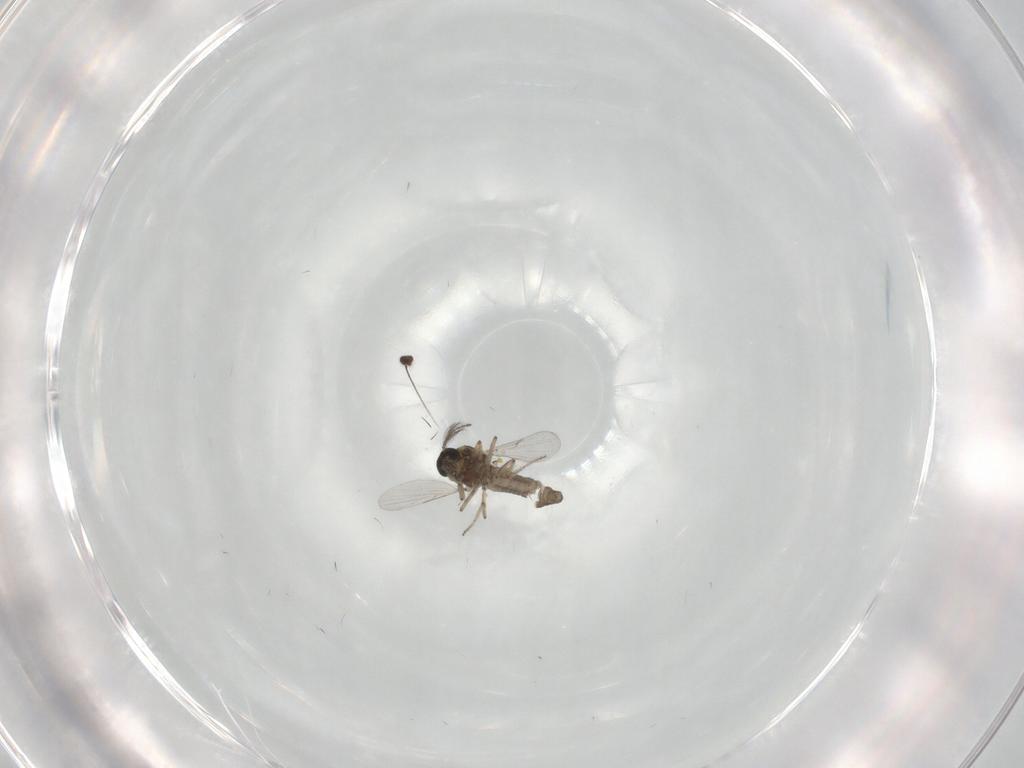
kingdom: Animalia
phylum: Arthropoda
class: Insecta
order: Diptera
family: Ceratopogonidae
